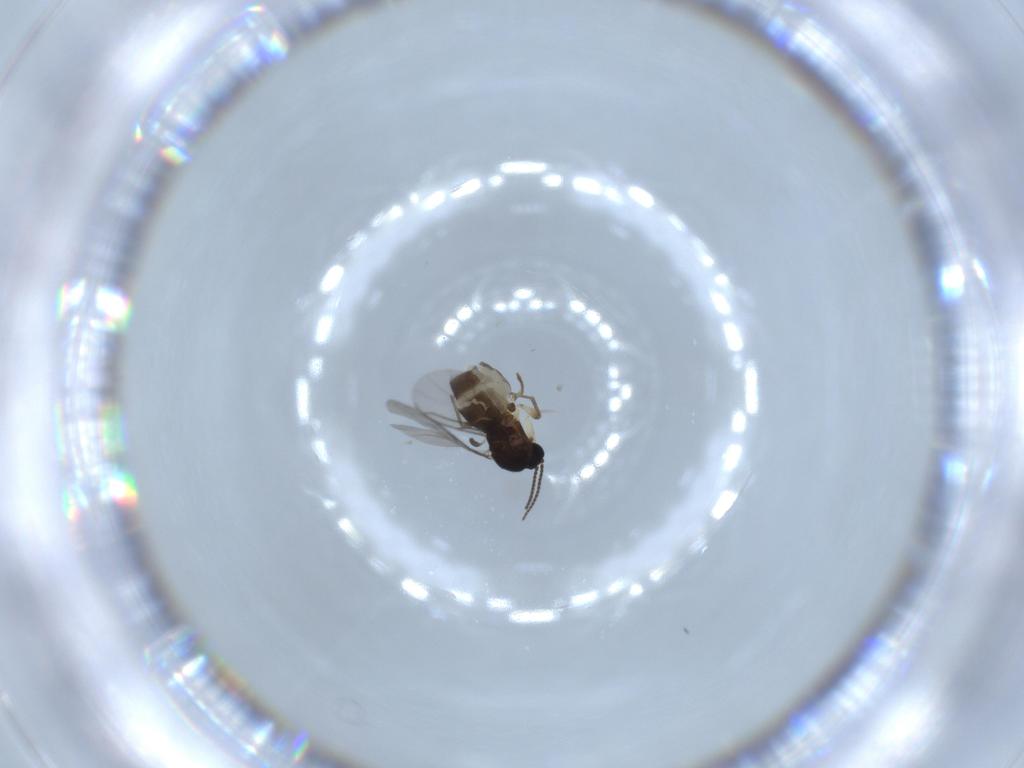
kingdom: Animalia
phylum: Arthropoda
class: Insecta
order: Diptera
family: Sciaridae
